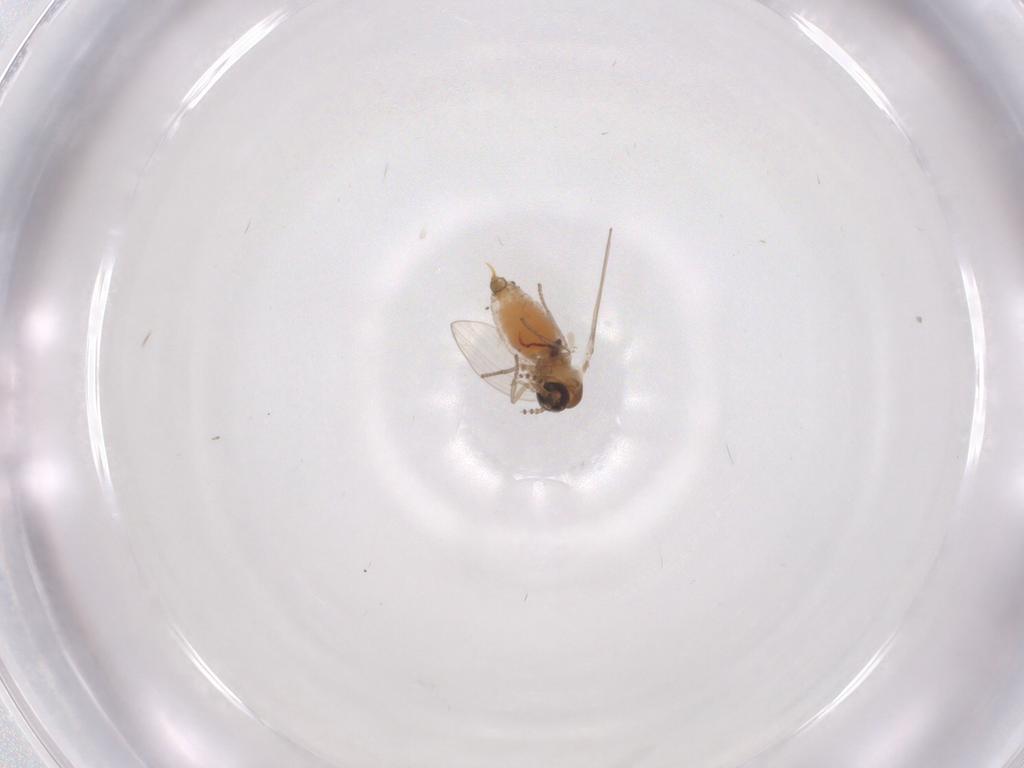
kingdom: Animalia
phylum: Arthropoda
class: Insecta
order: Diptera
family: Psychodidae
